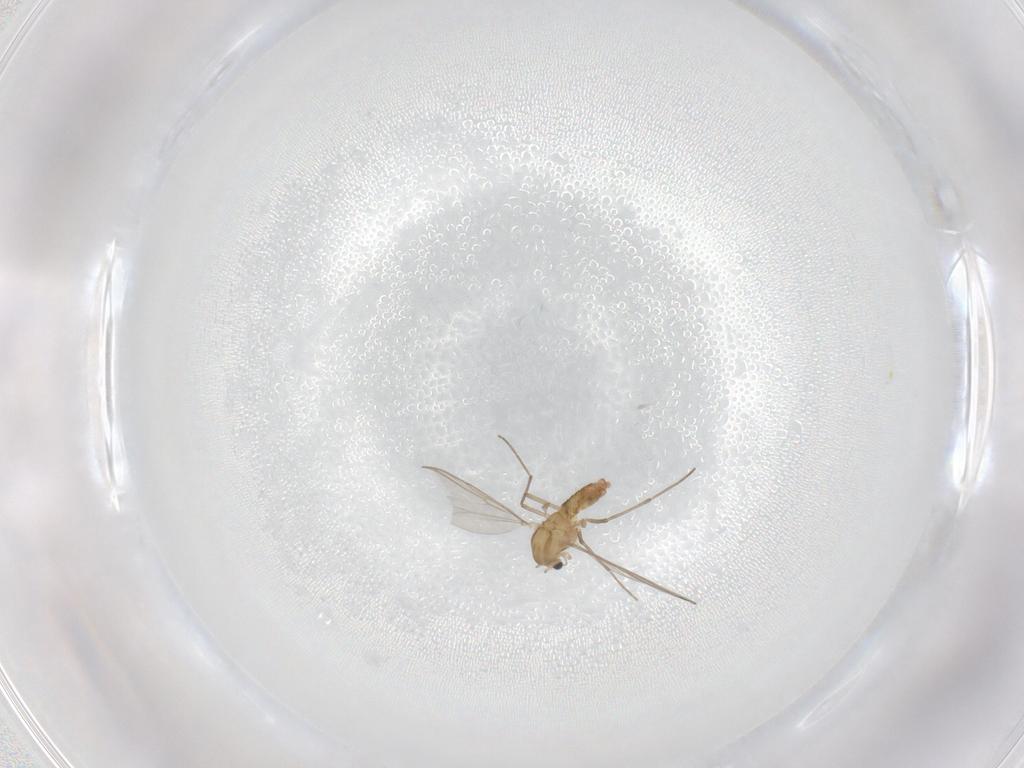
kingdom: Animalia
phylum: Arthropoda
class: Insecta
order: Diptera
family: Chironomidae
